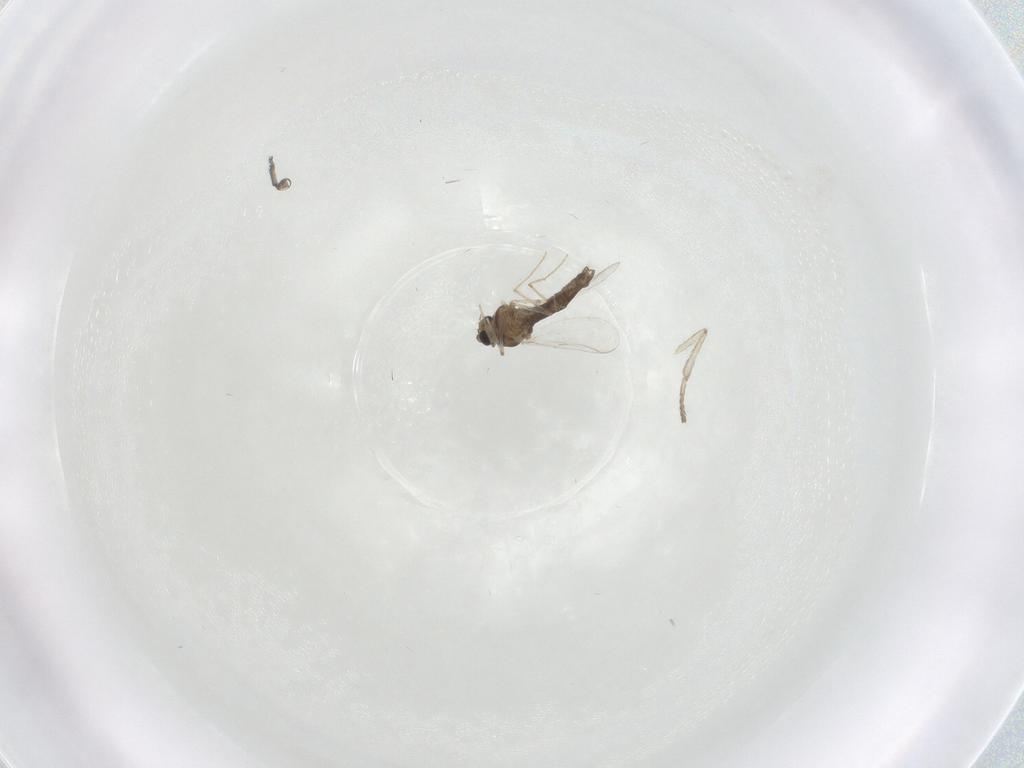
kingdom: Animalia
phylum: Arthropoda
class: Insecta
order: Diptera
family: Chironomidae
